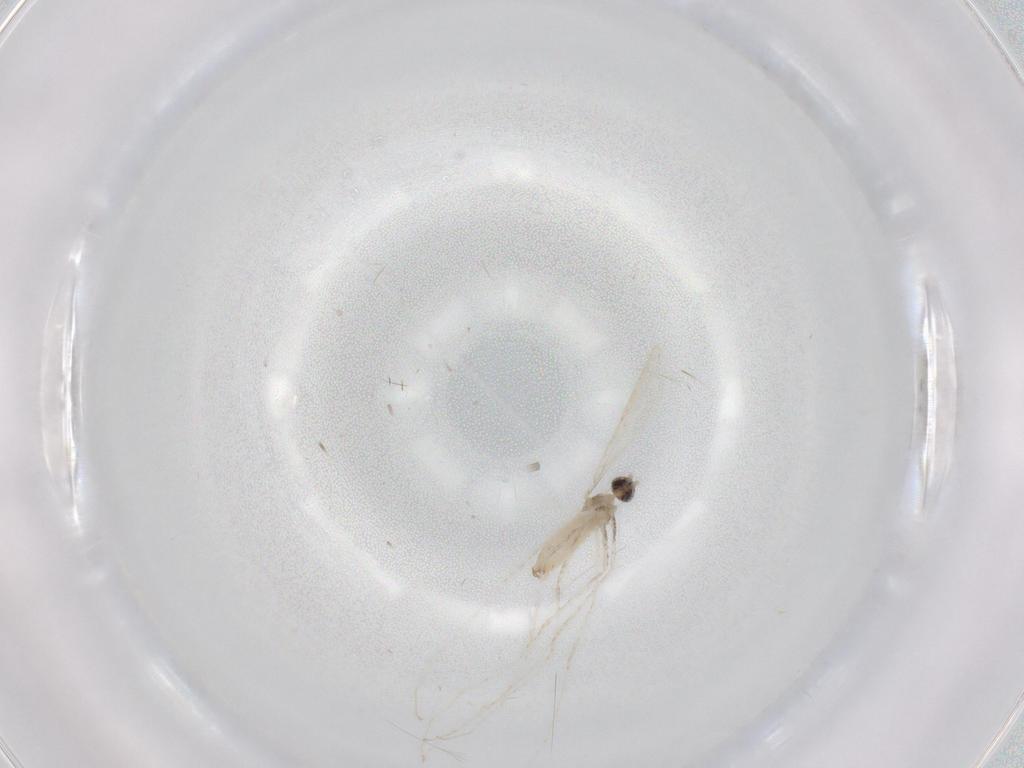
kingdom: Animalia
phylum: Arthropoda
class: Insecta
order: Diptera
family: Cecidomyiidae
